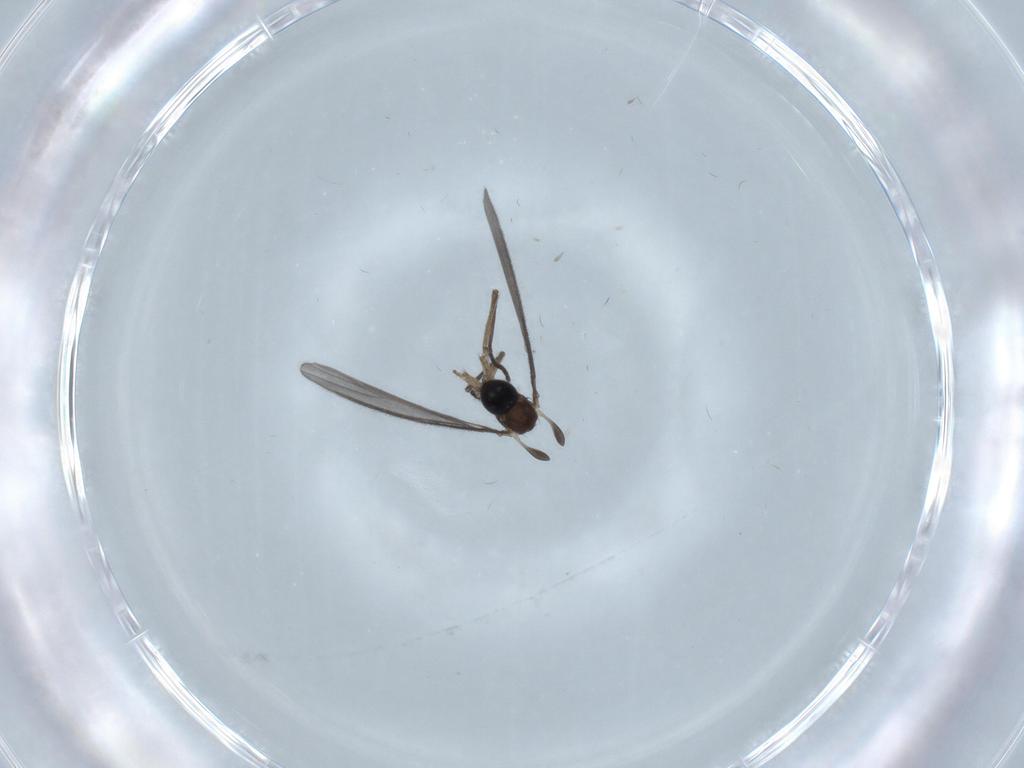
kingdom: Animalia
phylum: Arthropoda
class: Insecta
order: Diptera
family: Sciaridae
